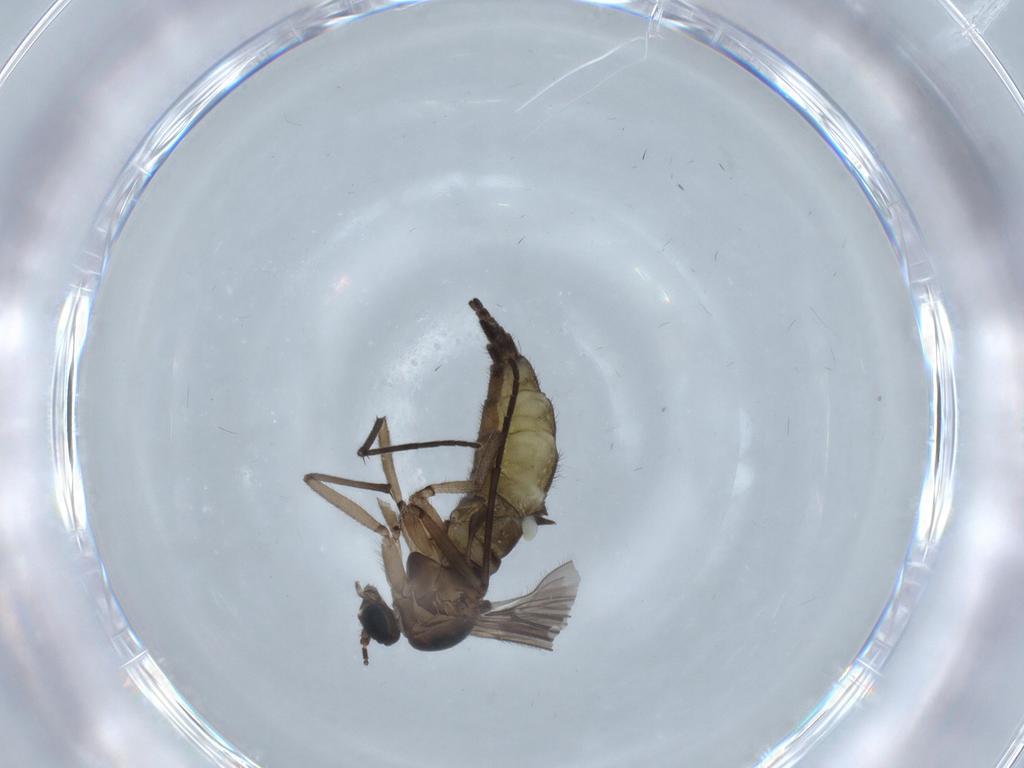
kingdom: Animalia
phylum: Arthropoda
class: Insecta
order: Diptera
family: Sciaridae
